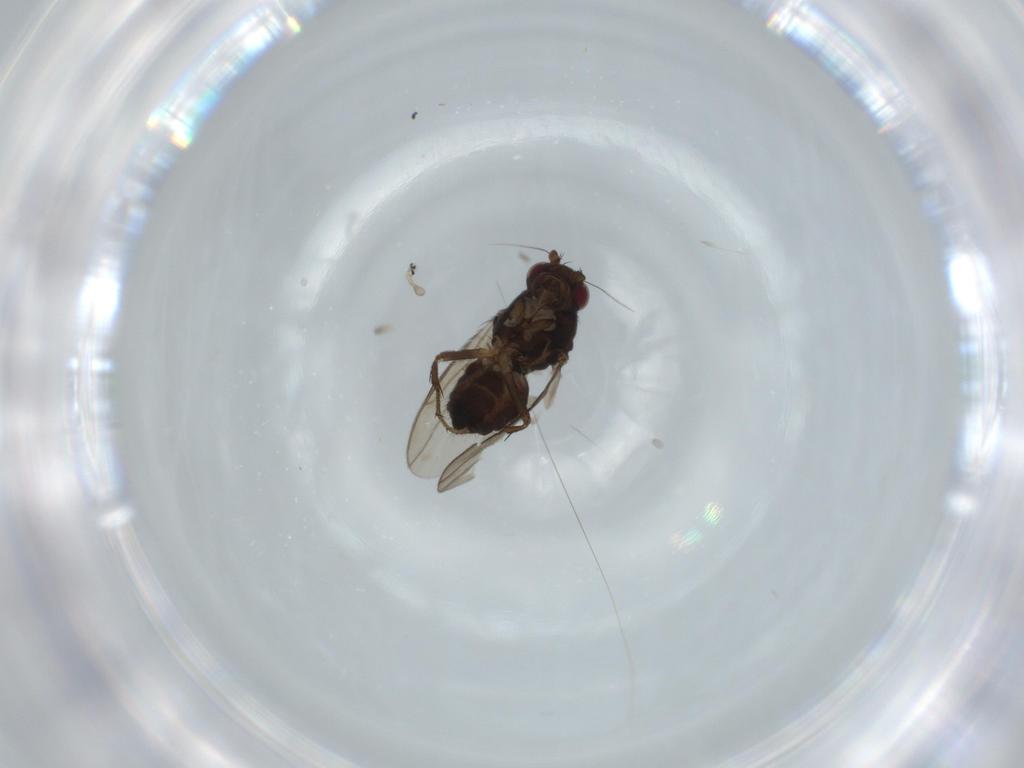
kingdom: Animalia
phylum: Arthropoda
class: Insecta
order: Diptera
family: Sphaeroceridae
